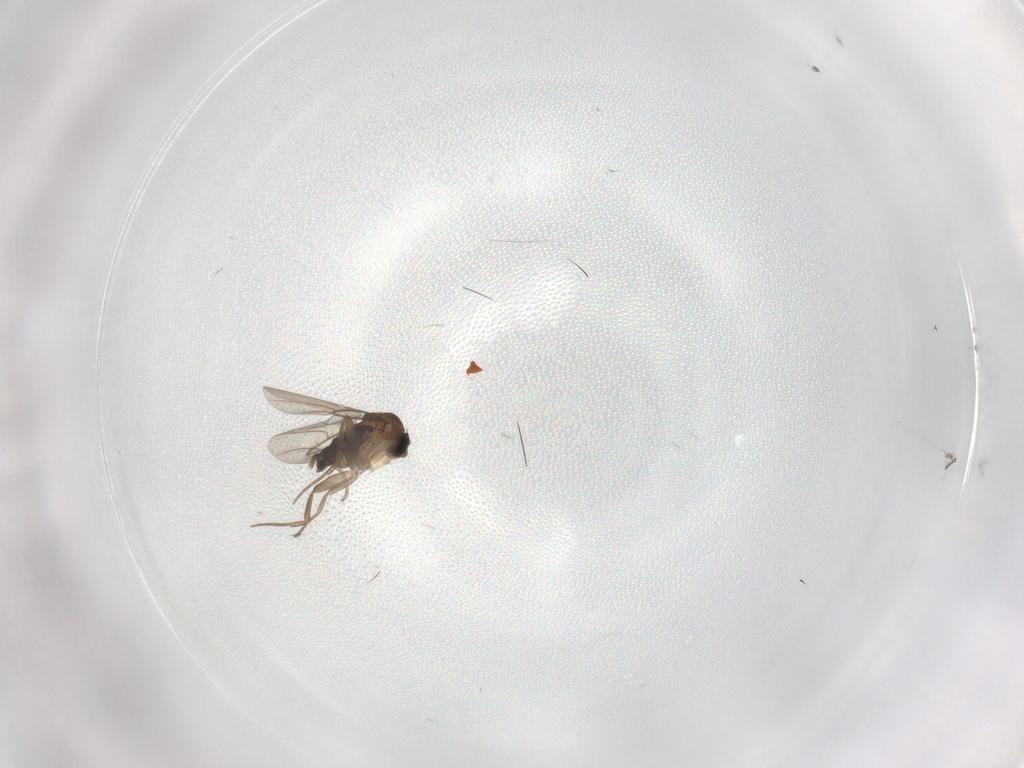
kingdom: Animalia
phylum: Arthropoda
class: Insecta
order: Diptera
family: Phoridae
